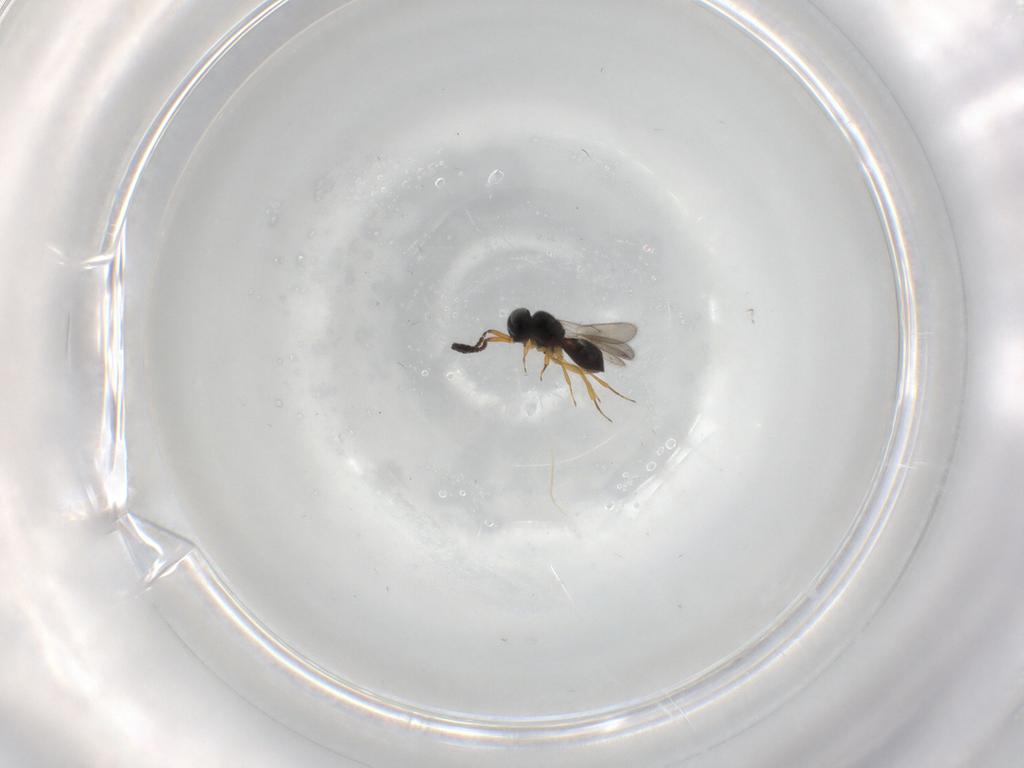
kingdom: Animalia
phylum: Arthropoda
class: Insecta
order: Hymenoptera
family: Scelionidae
